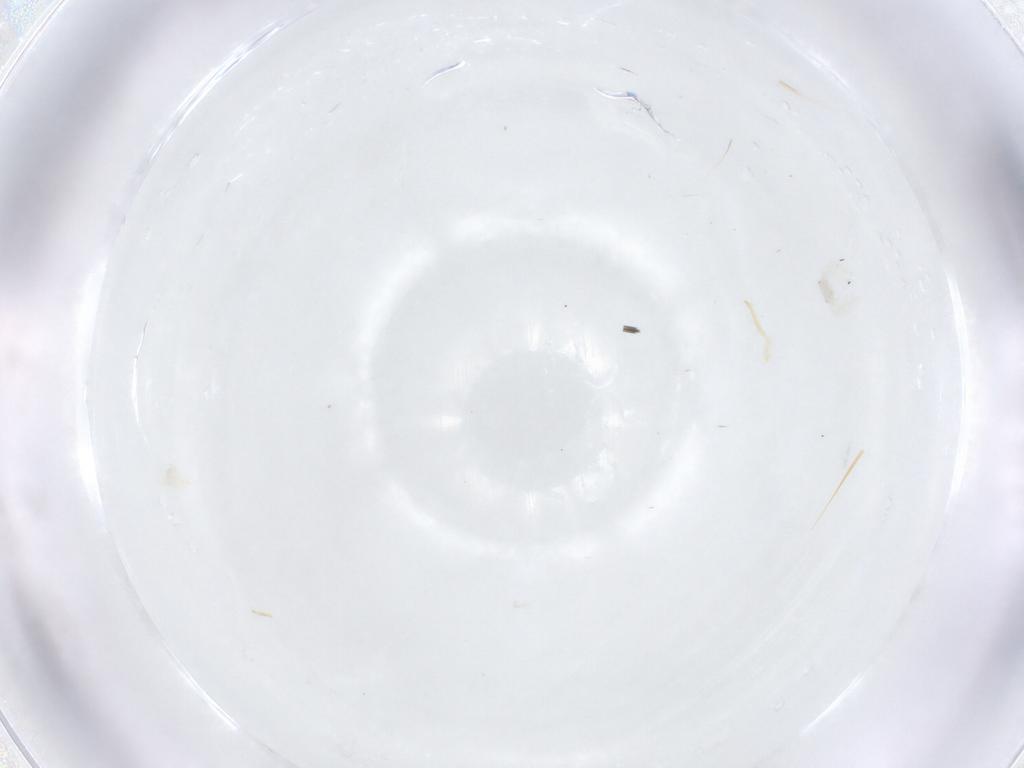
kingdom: Animalia
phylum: Arthropoda
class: Arachnida
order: Trombidiformes
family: Anystidae
